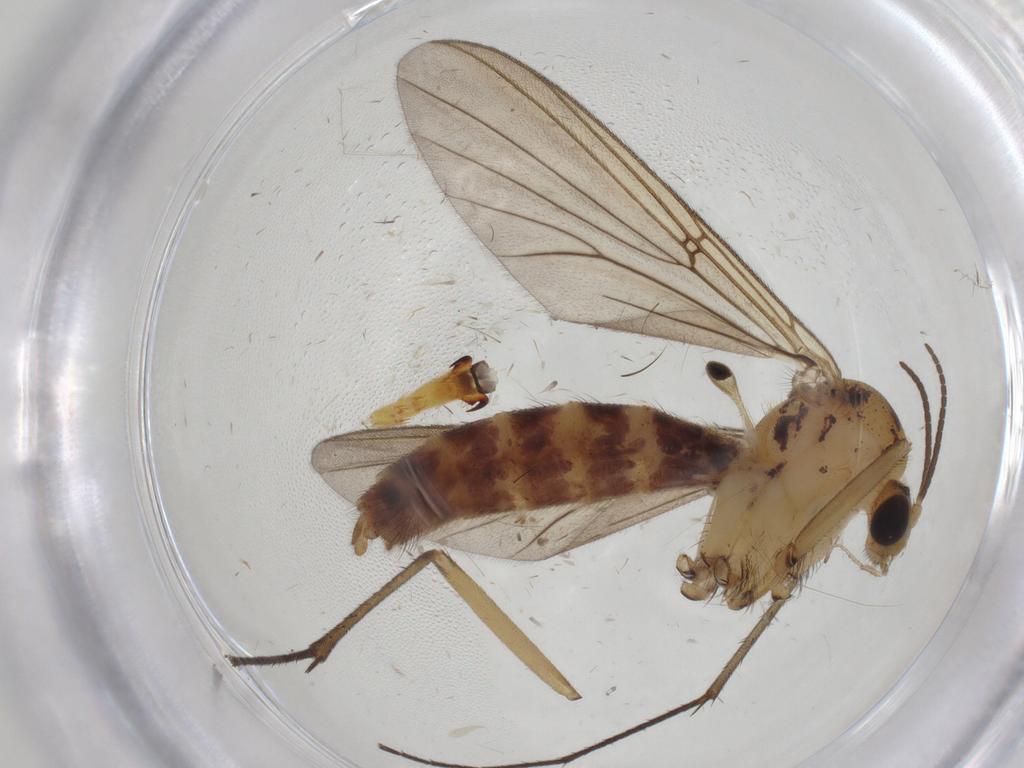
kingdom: Animalia
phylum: Arthropoda
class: Insecta
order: Diptera
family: Mycetophilidae
